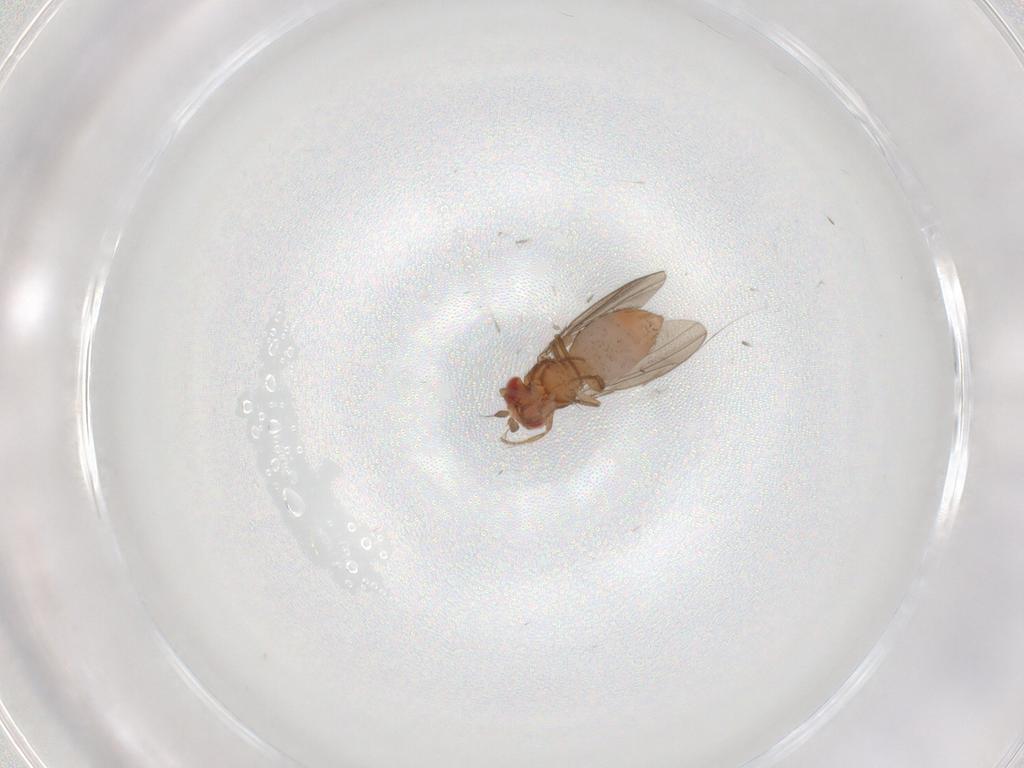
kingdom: Animalia
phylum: Arthropoda
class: Insecta
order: Diptera
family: Drosophilidae
